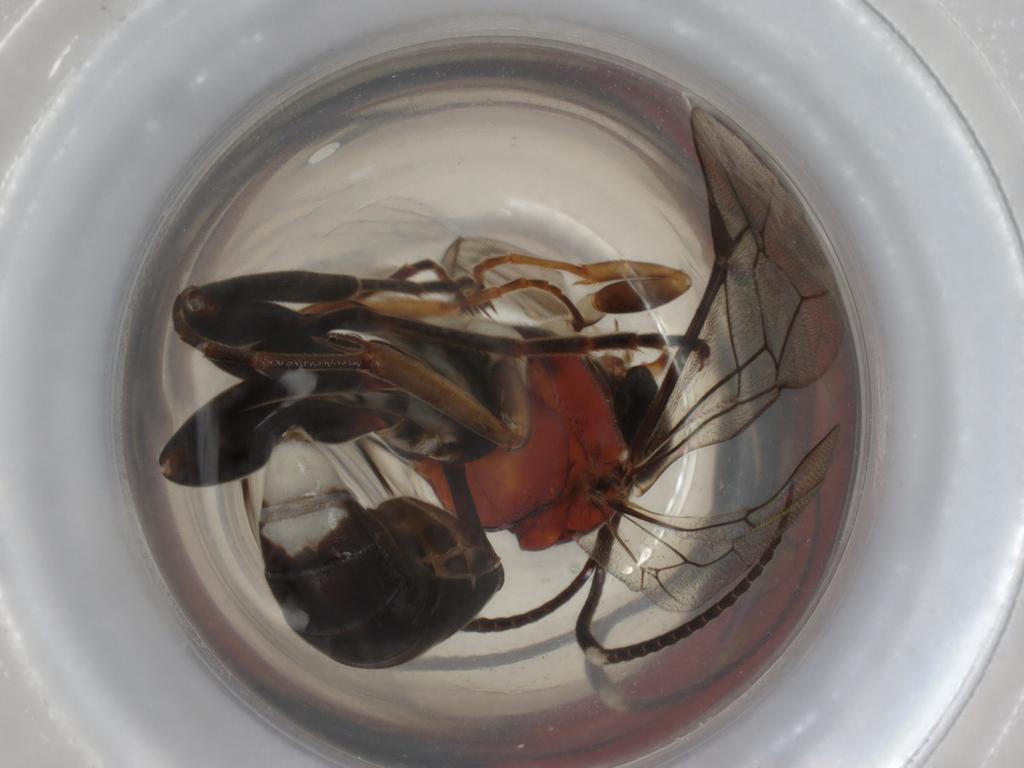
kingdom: Animalia
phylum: Arthropoda
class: Insecta
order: Hymenoptera
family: Ichneumonidae
